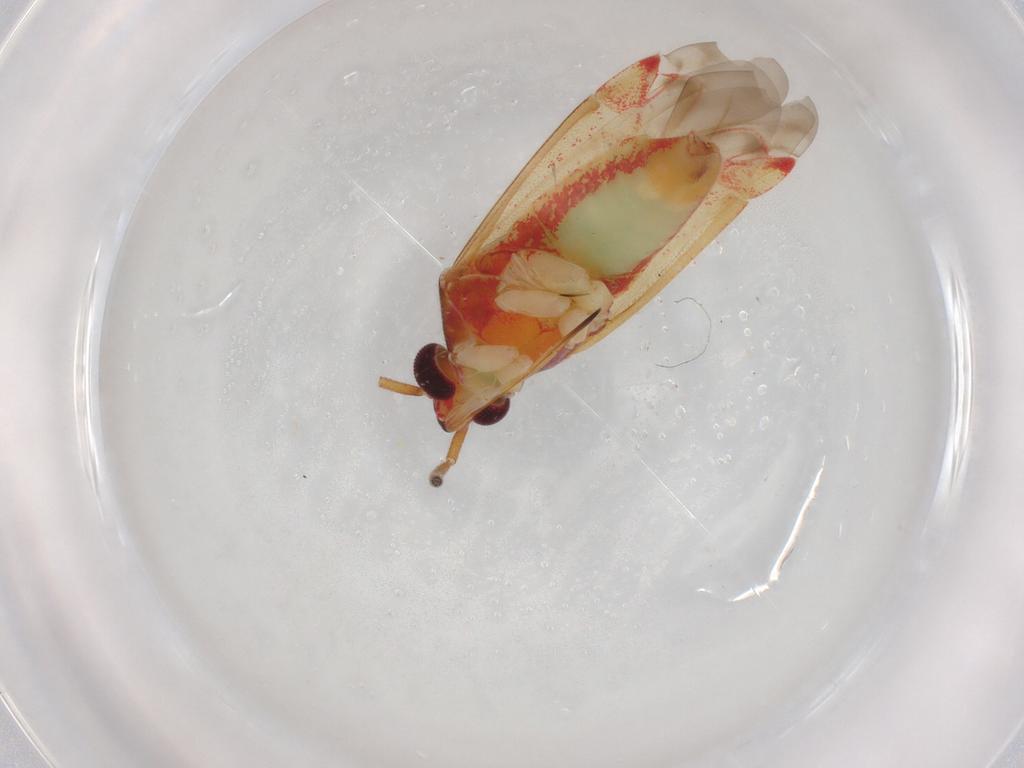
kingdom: Animalia
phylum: Arthropoda
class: Insecta
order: Hemiptera
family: Miridae
